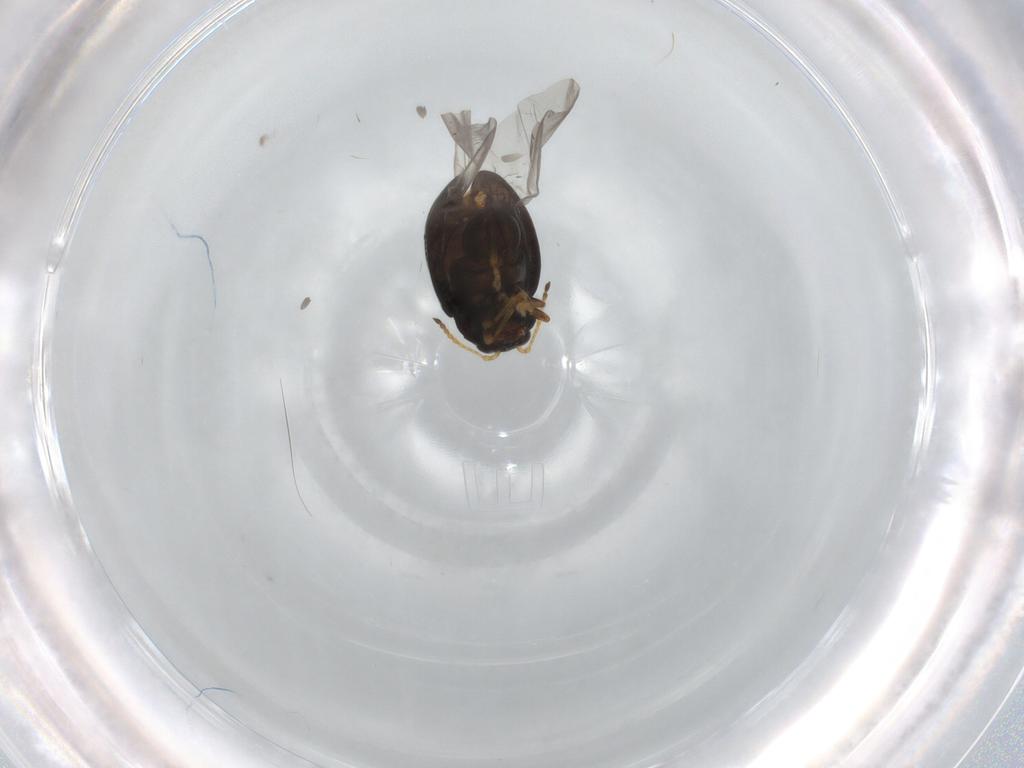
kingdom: Animalia
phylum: Arthropoda
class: Insecta
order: Coleoptera
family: Chrysomelidae
